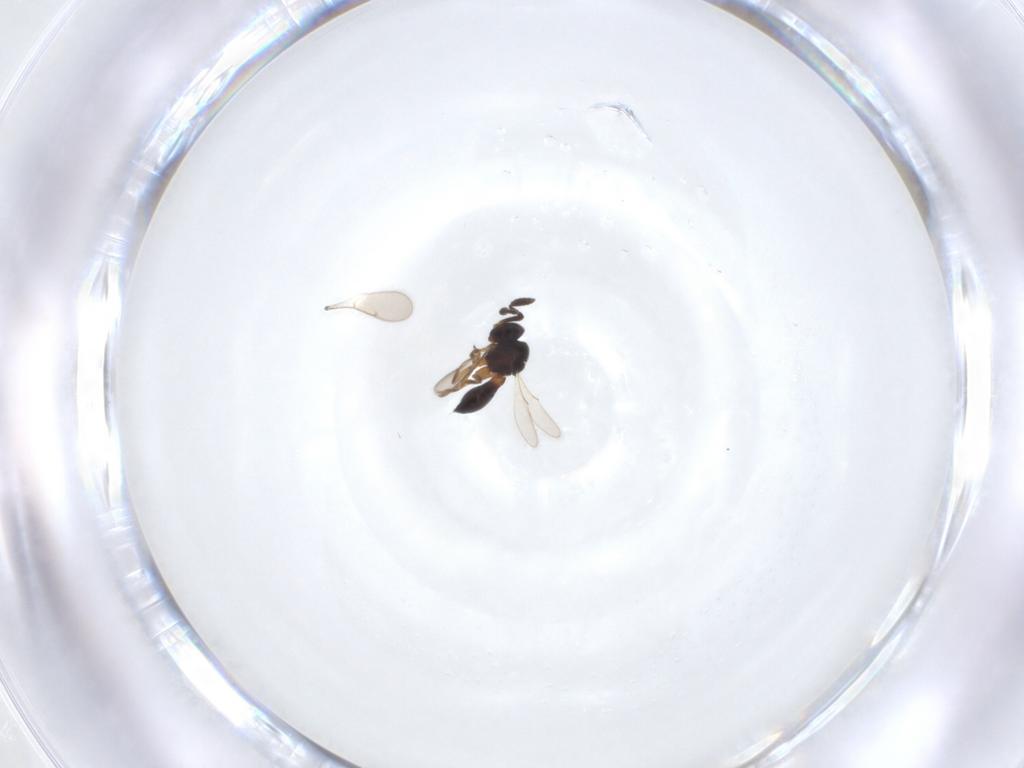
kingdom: Animalia
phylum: Arthropoda
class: Insecta
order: Hymenoptera
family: Scelionidae
